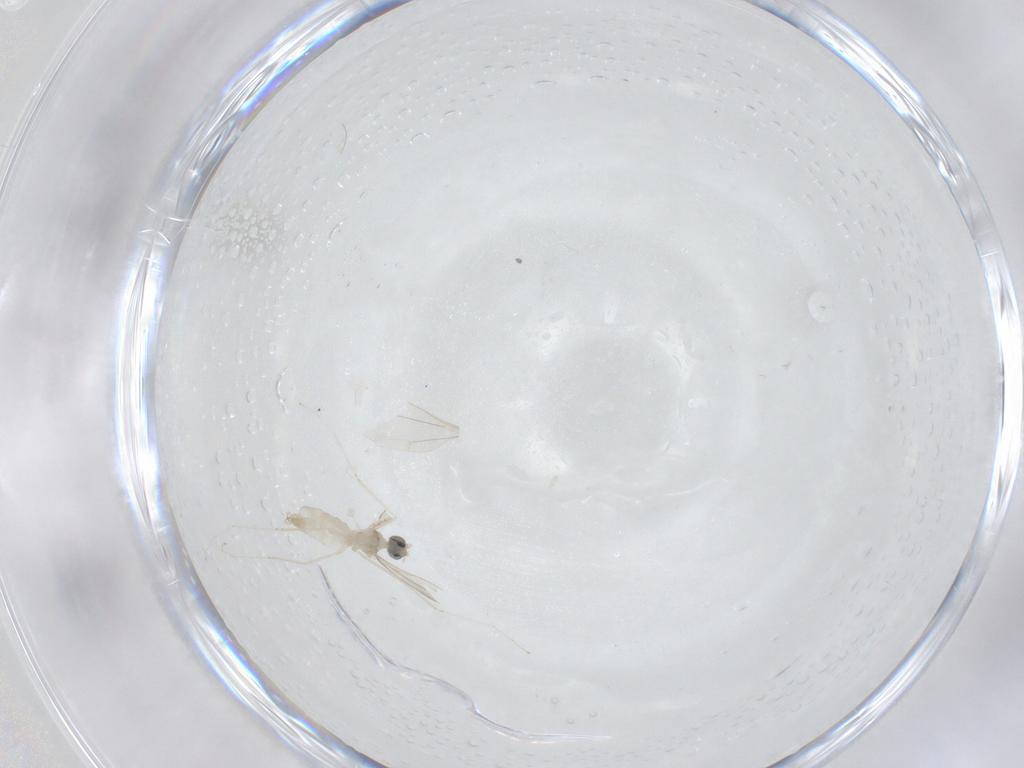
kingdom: Animalia
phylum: Arthropoda
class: Insecta
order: Diptera
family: Cecidomyiidae
